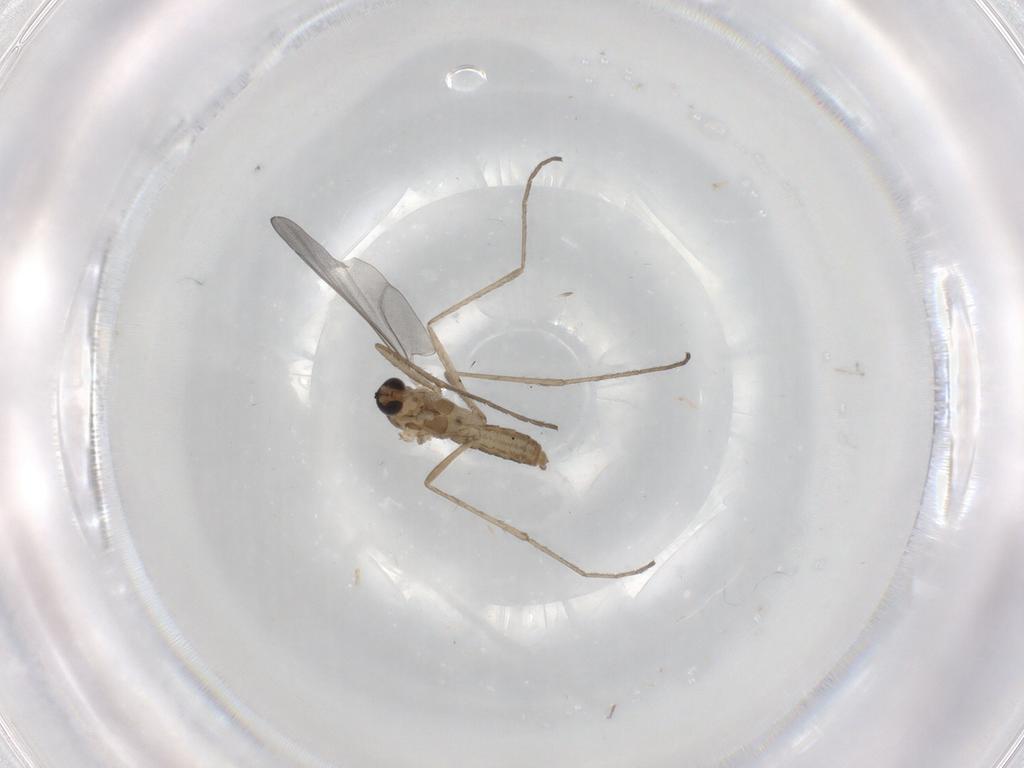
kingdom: Animalia
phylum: Arthropoda
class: Insecta
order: Diptera
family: Cecidomyiidae
